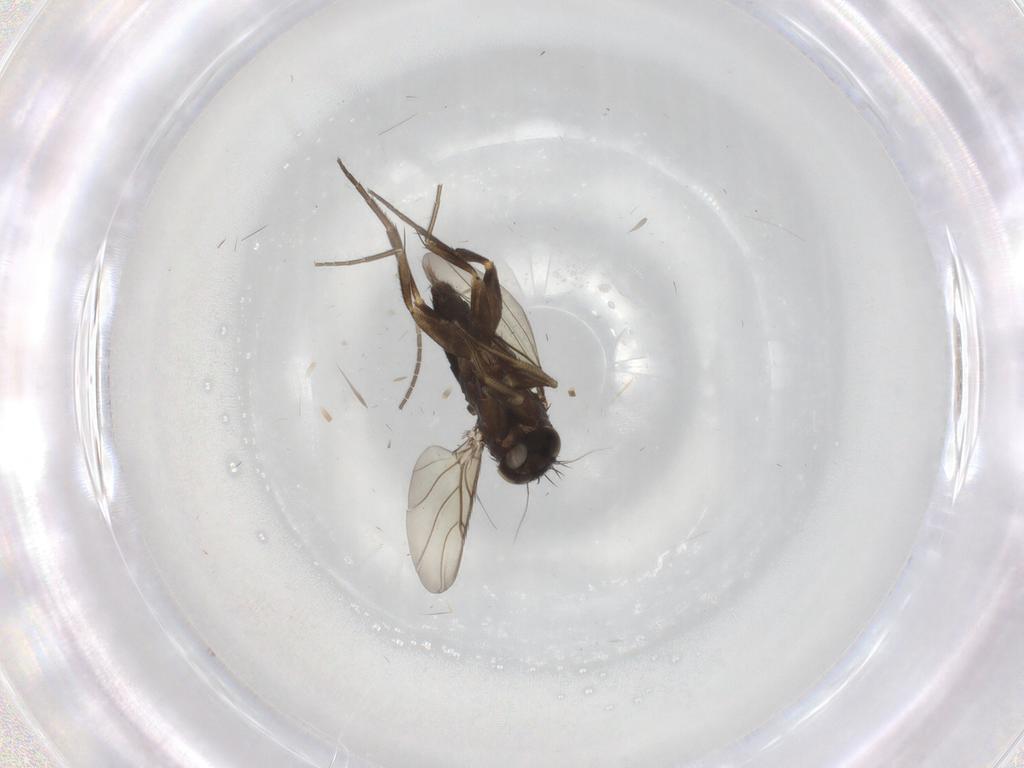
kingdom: Animalia
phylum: Arthropoda
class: Insecta
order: Diptera
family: Phoridae
